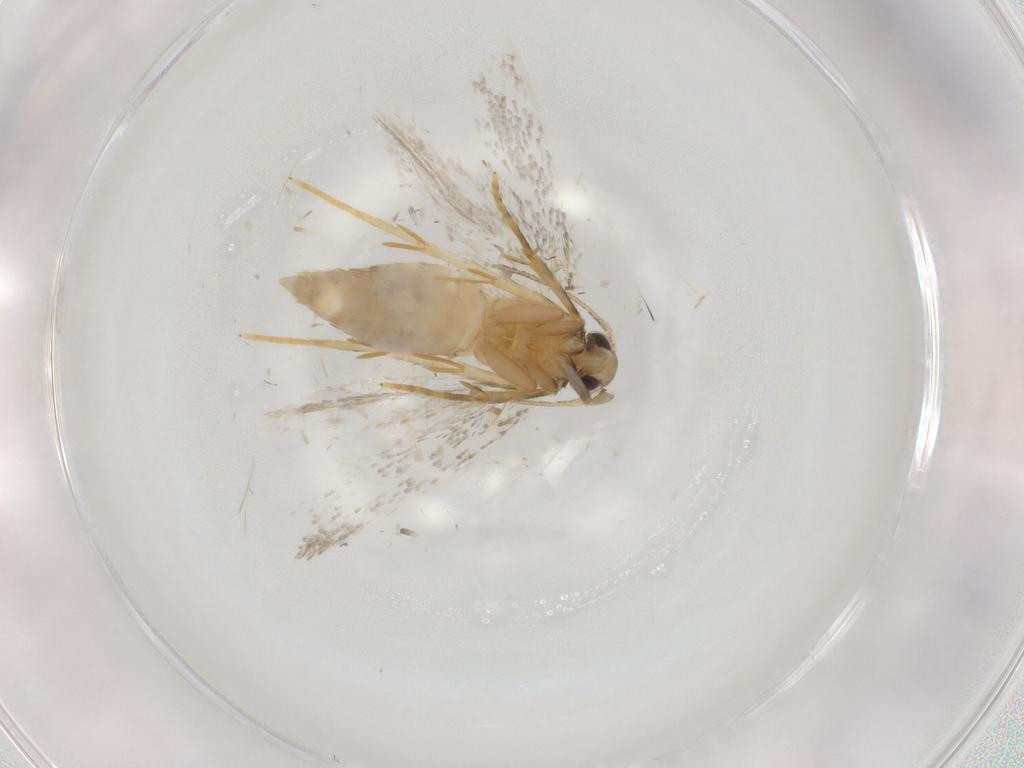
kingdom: Animalia
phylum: Arthropoda
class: Insecta
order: Lepidoptera
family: Autostichidae
